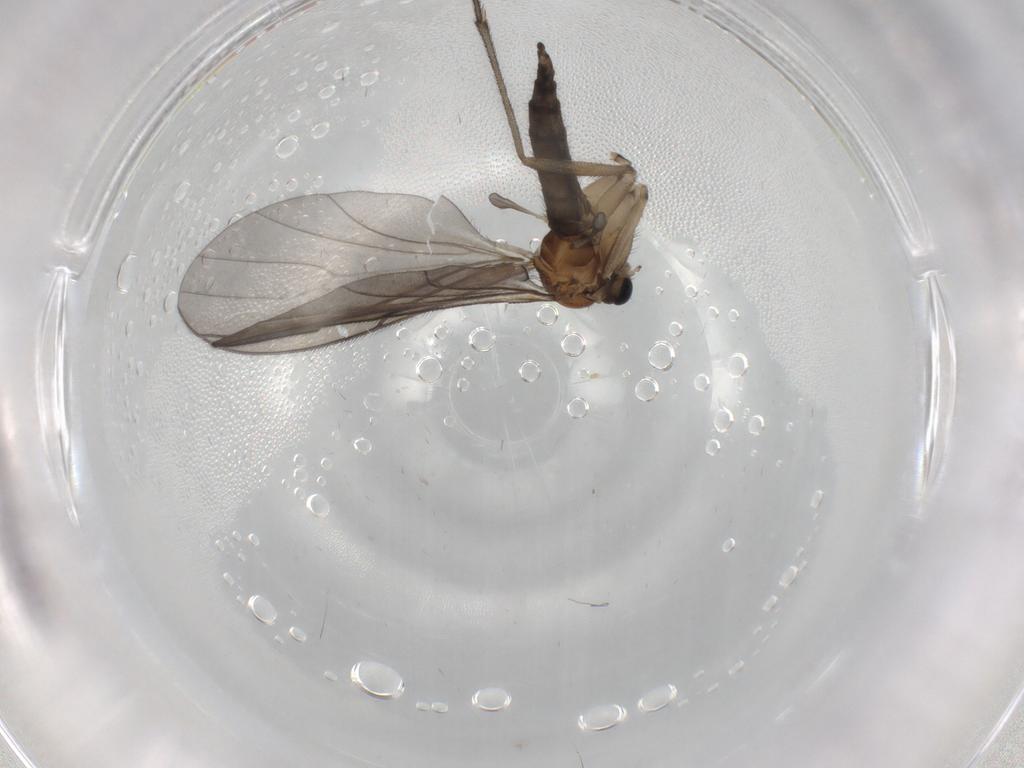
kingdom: Animalia
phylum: Arthropoda
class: Insecta
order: Diptera
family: Sciaridae
